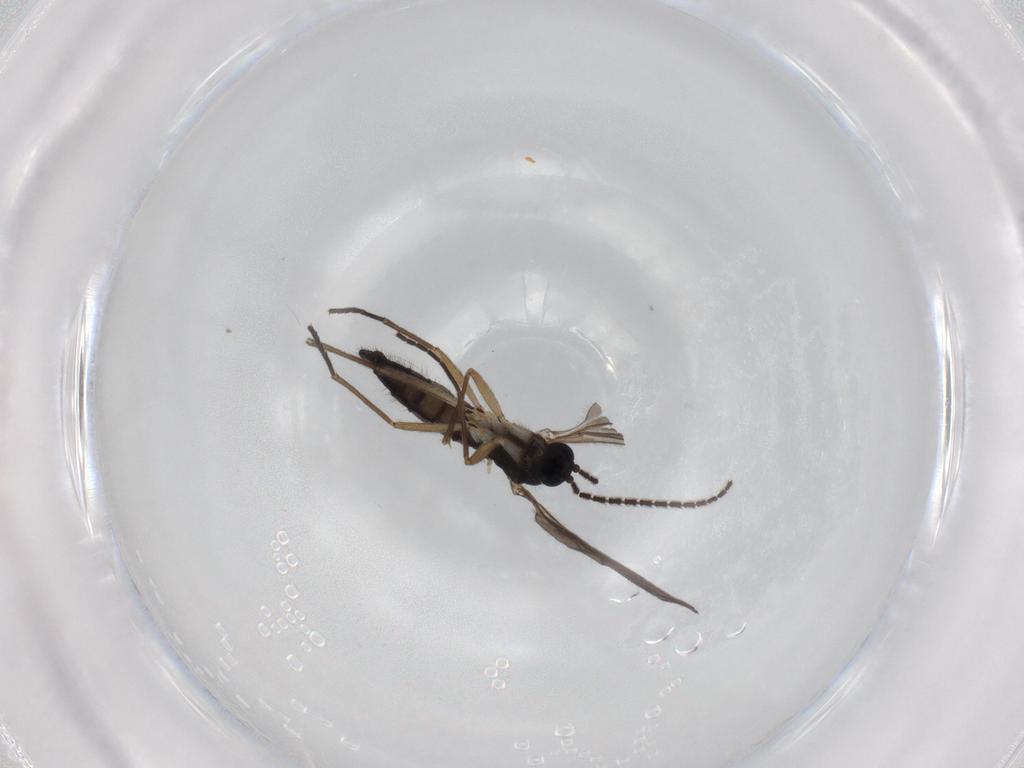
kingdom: Animalia
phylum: Arthropoda
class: Insecta
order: Diptera
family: Sciaridae
